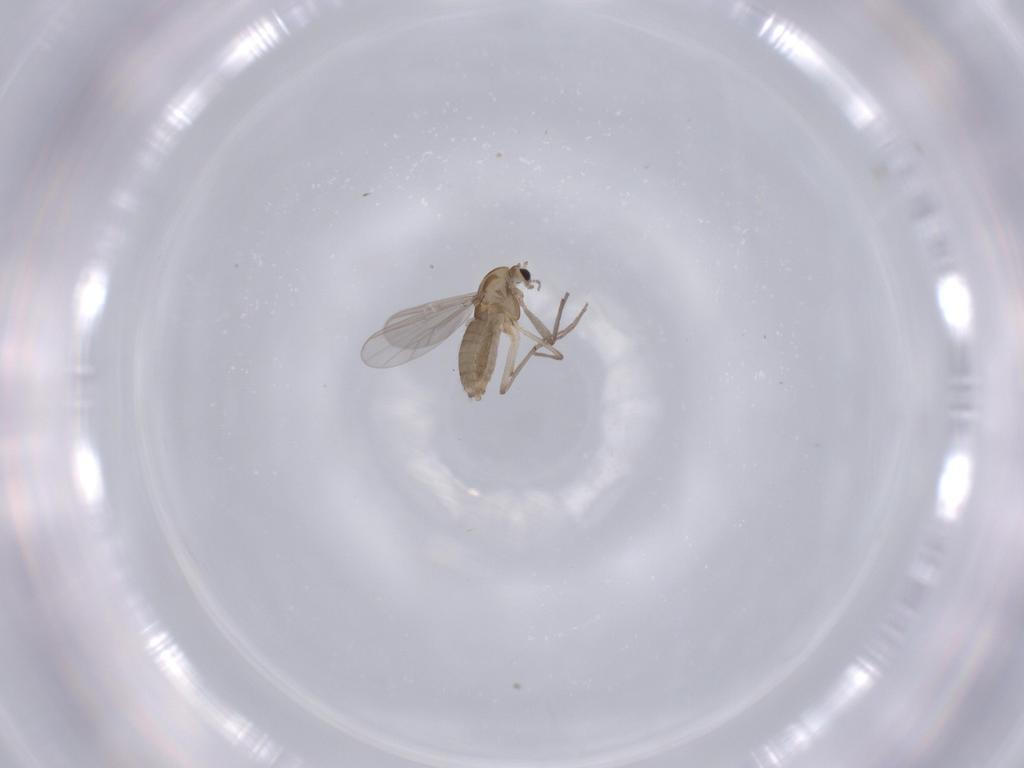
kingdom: Animalia
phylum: Arthropoda
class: Insecta
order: Diptera
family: Chironomidae
